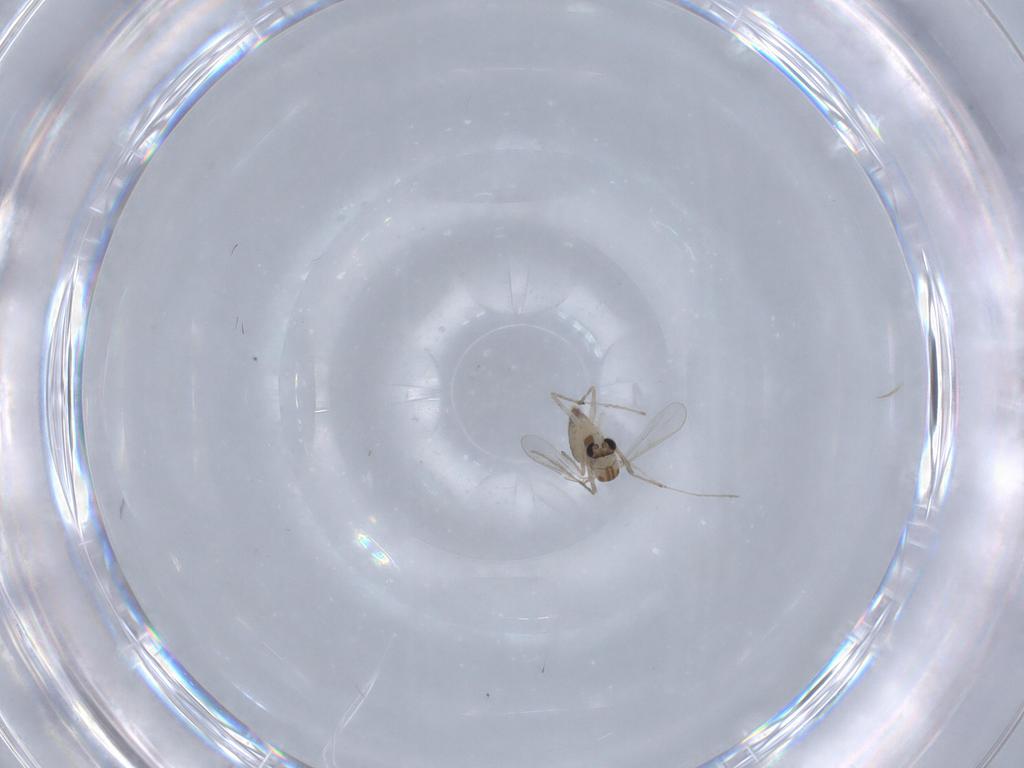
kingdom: Animalia
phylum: Arthropoda
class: Insecta
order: Diptera
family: Chironomidae
